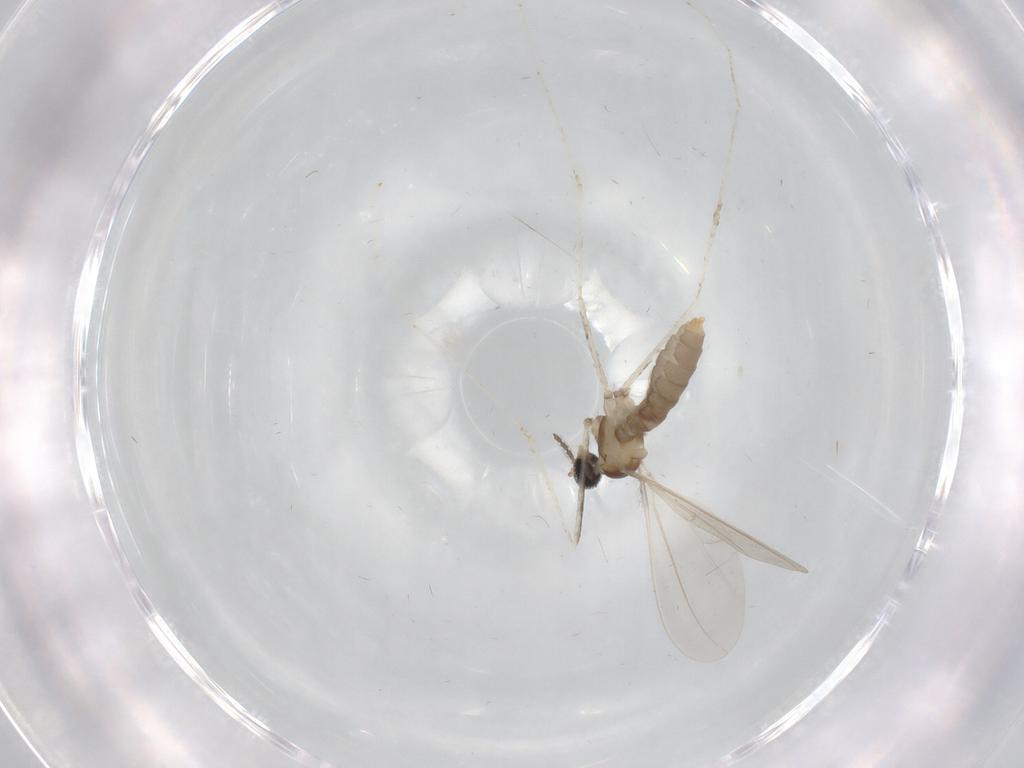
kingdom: Animalia
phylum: Arthropoda
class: Insecta
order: Diptera
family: Cecidomyiidae
